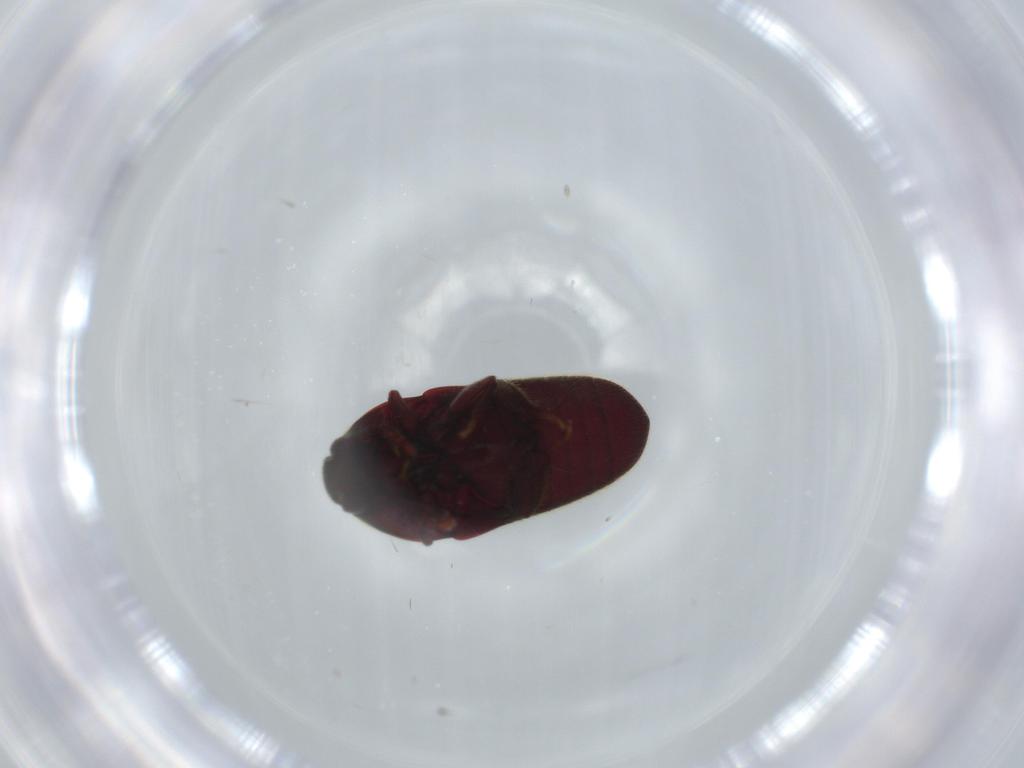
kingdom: Animalia
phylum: Arthropoda
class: Insecta
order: Coleoptera
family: Throscidae
